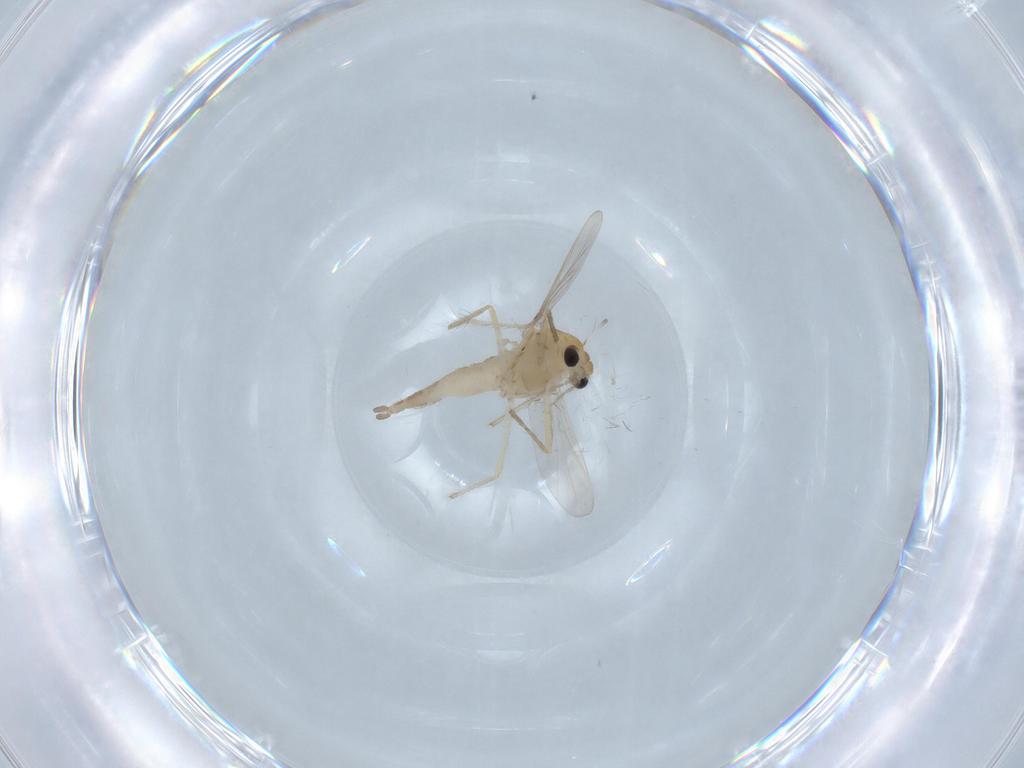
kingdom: Animalia
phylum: Arthropoda
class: Insecta
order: Diptera
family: Chironomidae
